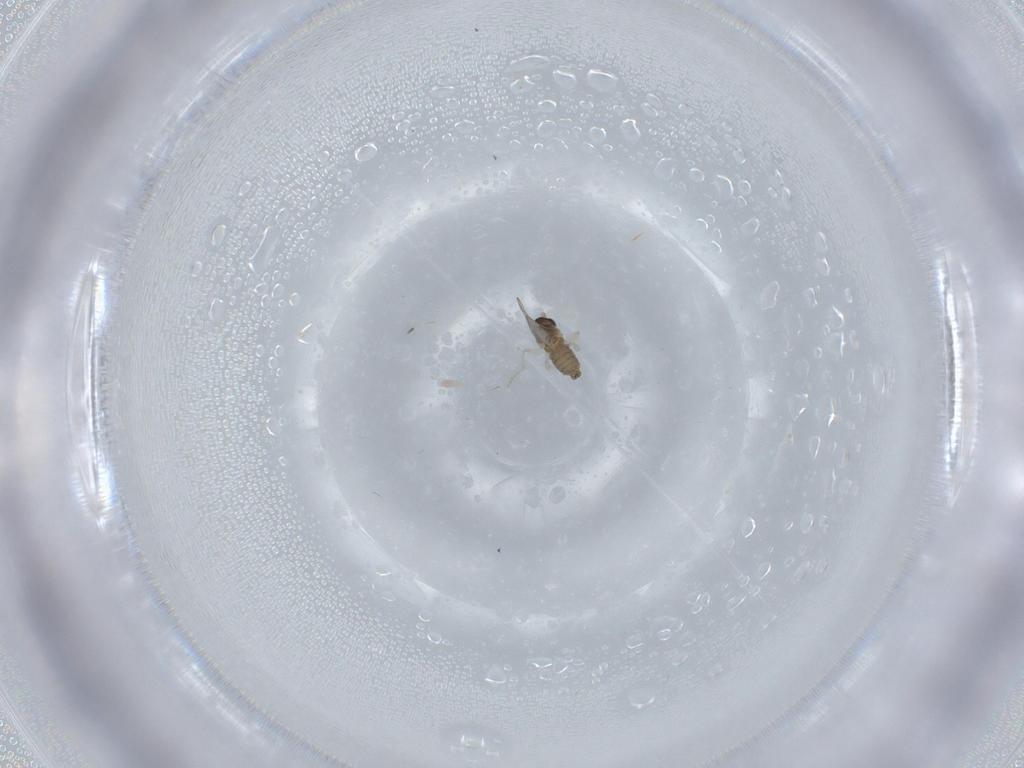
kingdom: Animalia
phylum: Arthropoda
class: Insecta
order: Diptera
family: Cecidomyiidae
